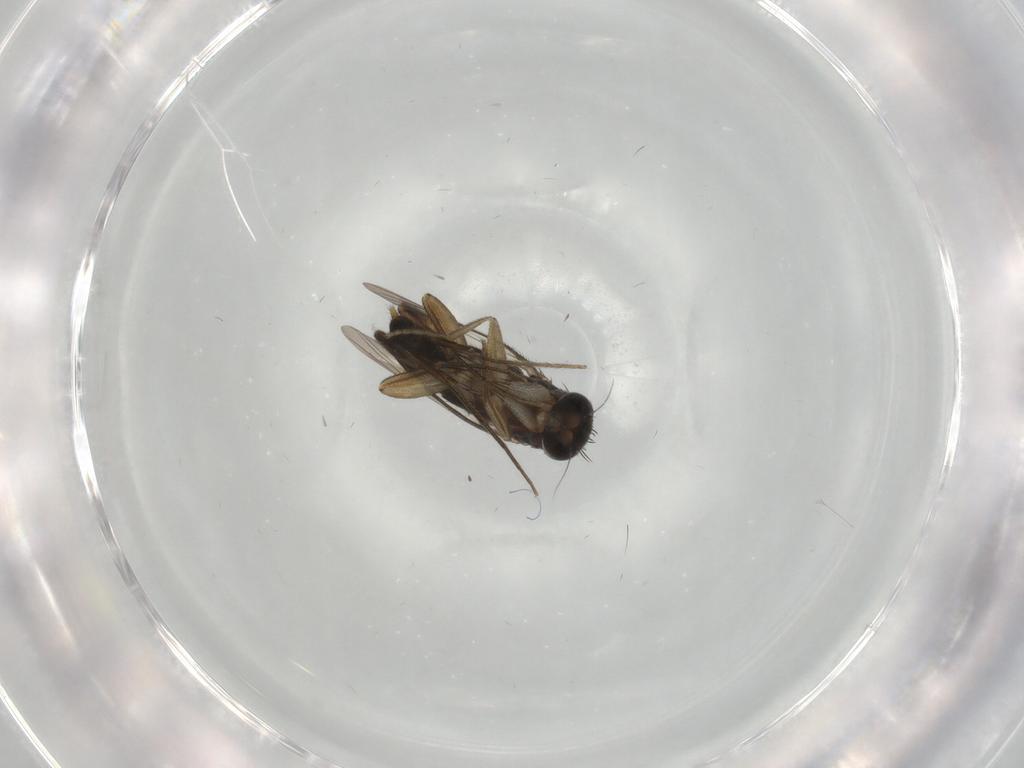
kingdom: Animalia
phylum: Arthropoda
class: Insecta
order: Diptera
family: Phoridae
